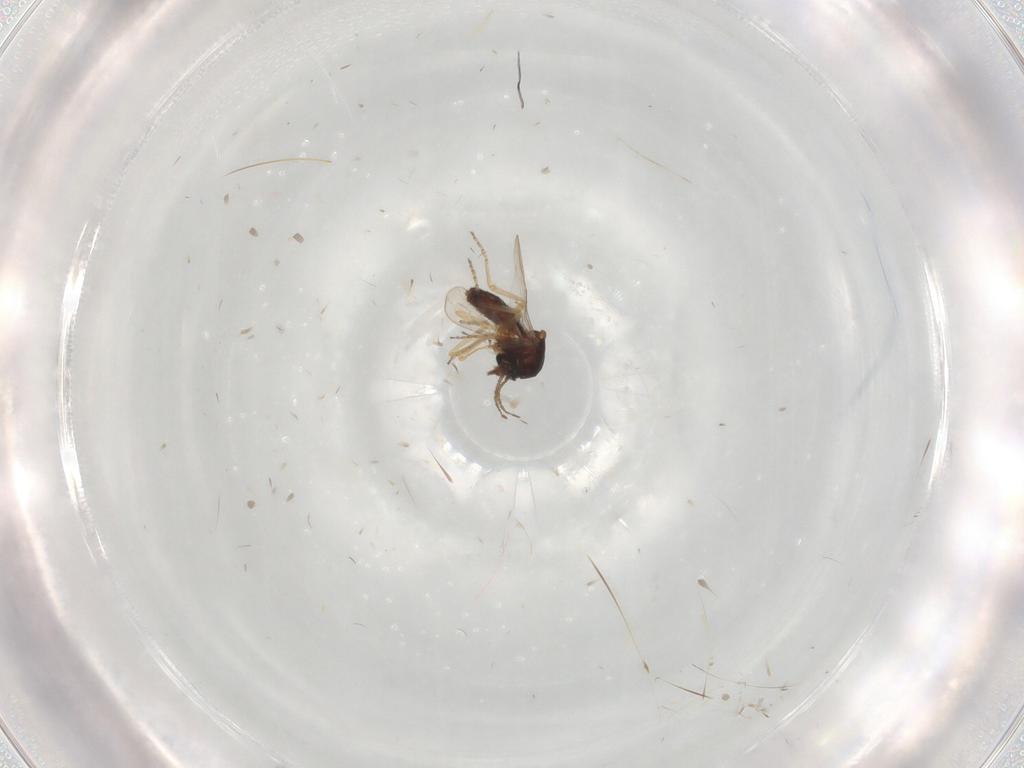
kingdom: Animalia
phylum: Arthropoda
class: Insecta
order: Diptera
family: Ceratopogonidae
